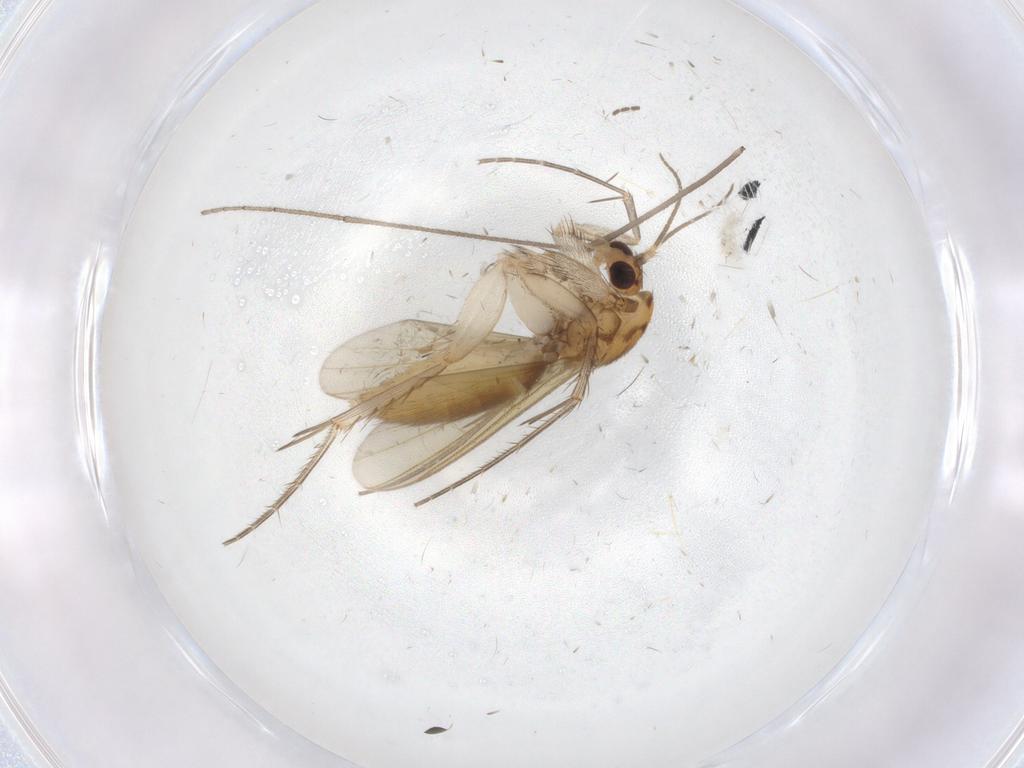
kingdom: Animalia
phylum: Arthropoda
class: Insecta
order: Diptera
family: Mycetophilidae
